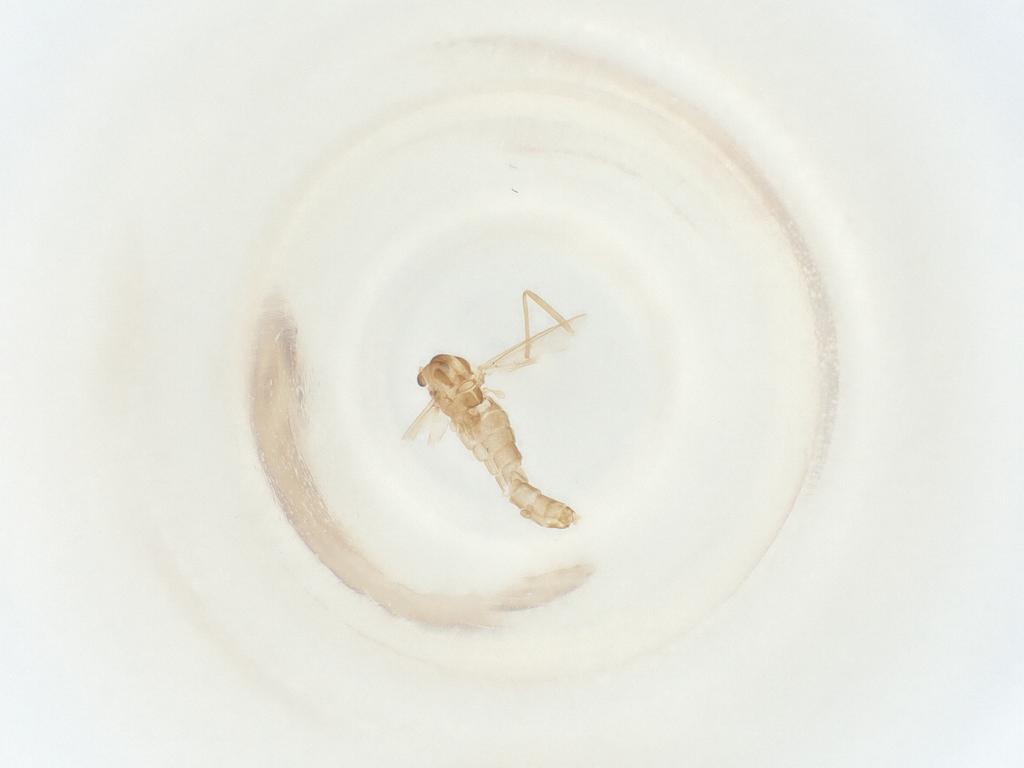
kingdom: Animalia
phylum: Arthropoda
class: Insecta
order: Diptera
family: Chironomidae
